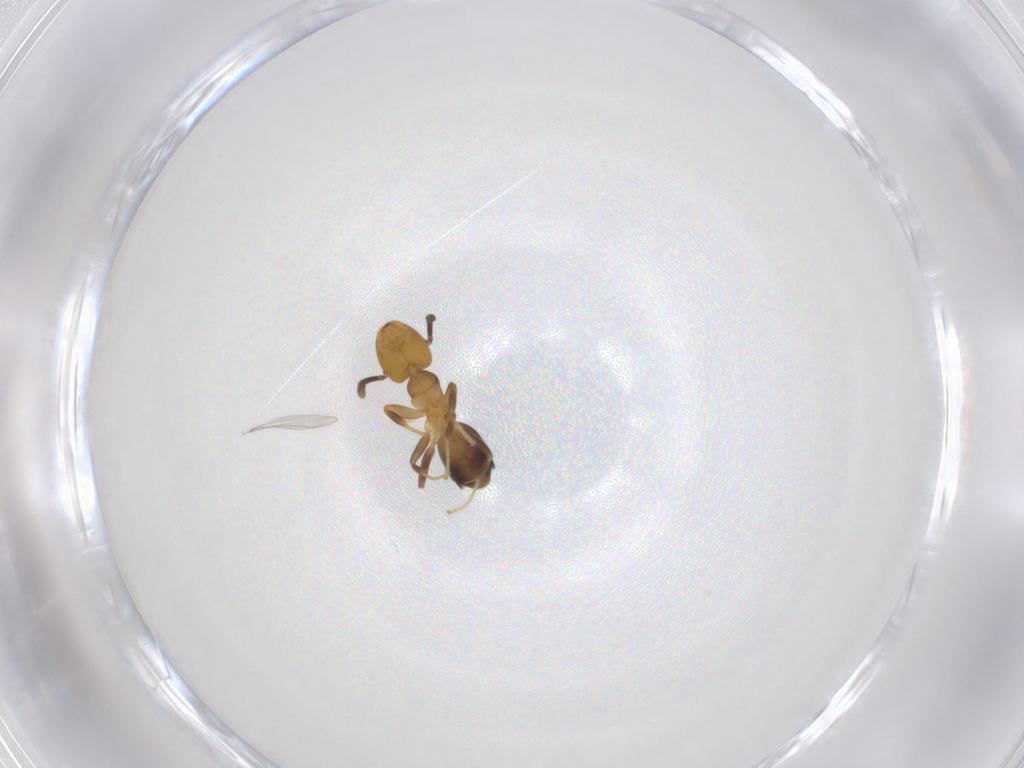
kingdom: Animalia
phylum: Arthropoda
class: Insecta
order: Hymenoptera
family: Formicidae
